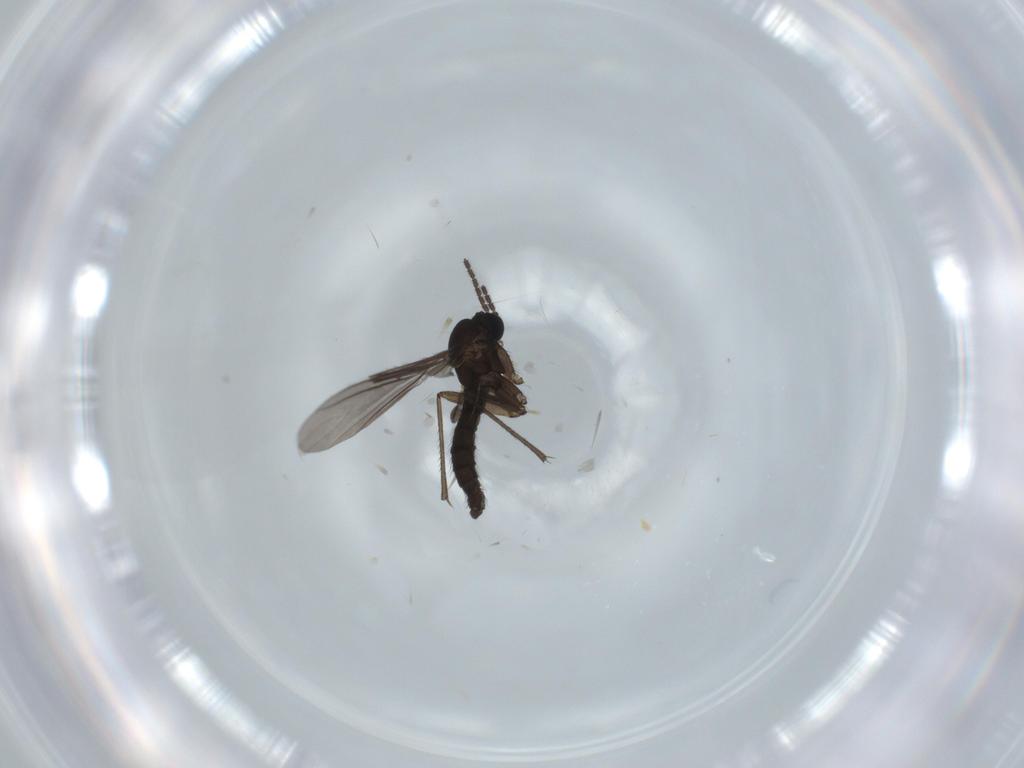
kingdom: Animalia
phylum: Arthropoda
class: Insecta
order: Diptera
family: Sciaridae
